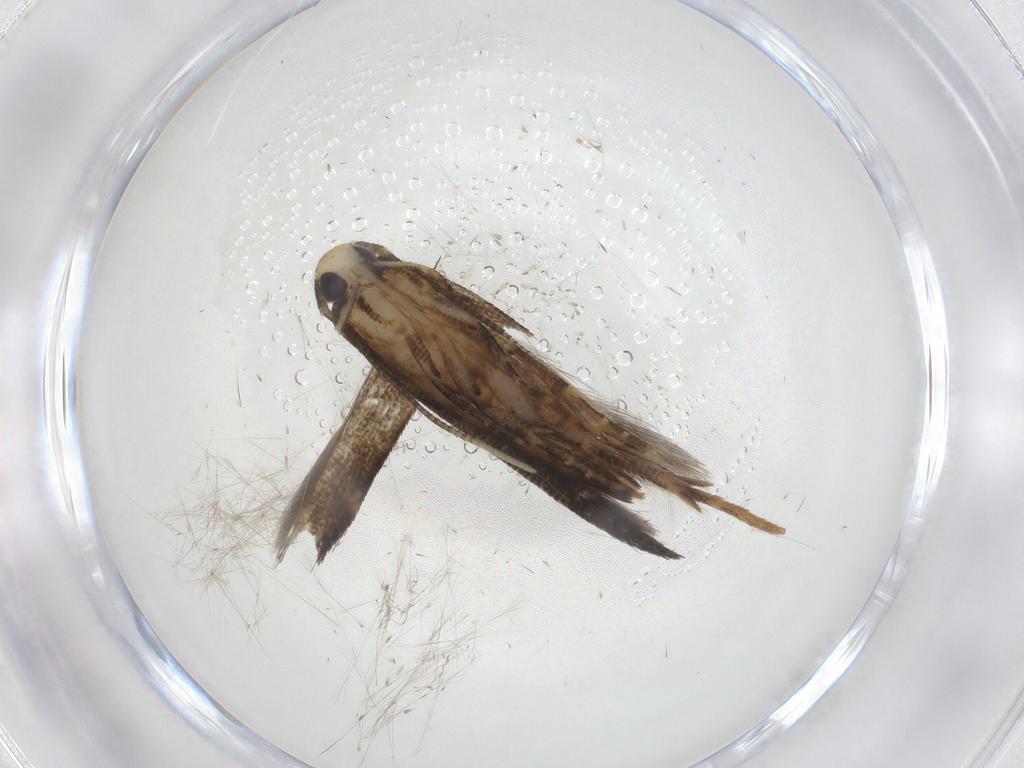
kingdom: Animalia
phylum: Arthropoda
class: Insecta
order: Lepidoptera
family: Cosmopterigidae
